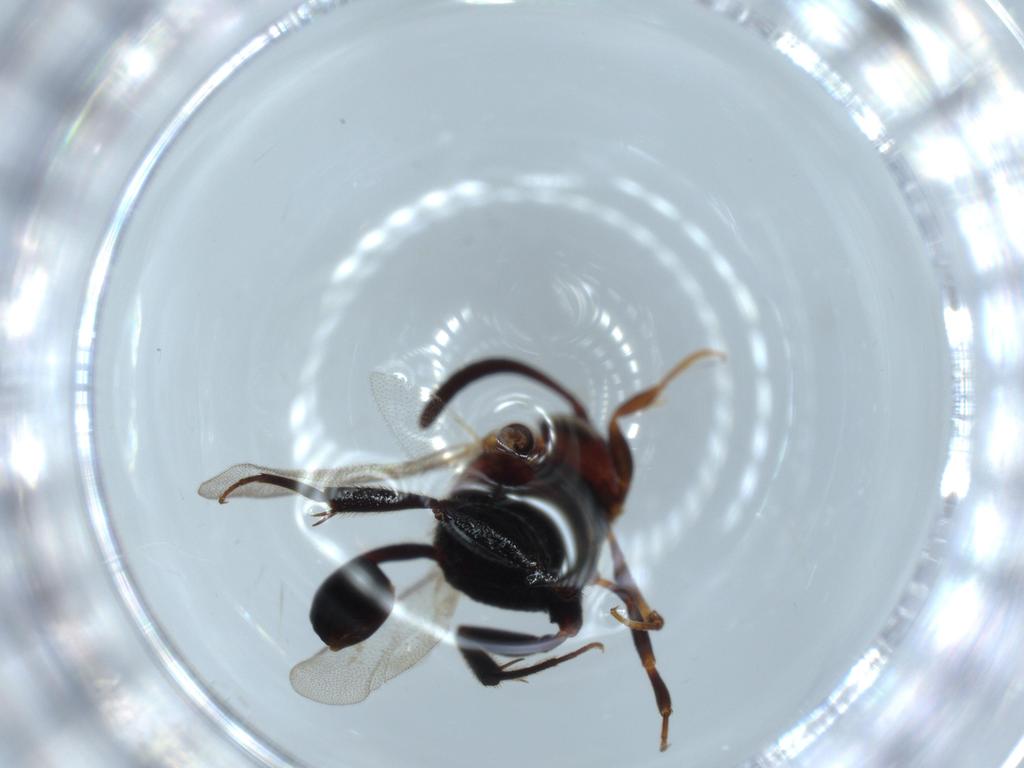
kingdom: Animalia
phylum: Arthropoda
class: Insecta
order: Hymenoptera
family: Evaniidae
